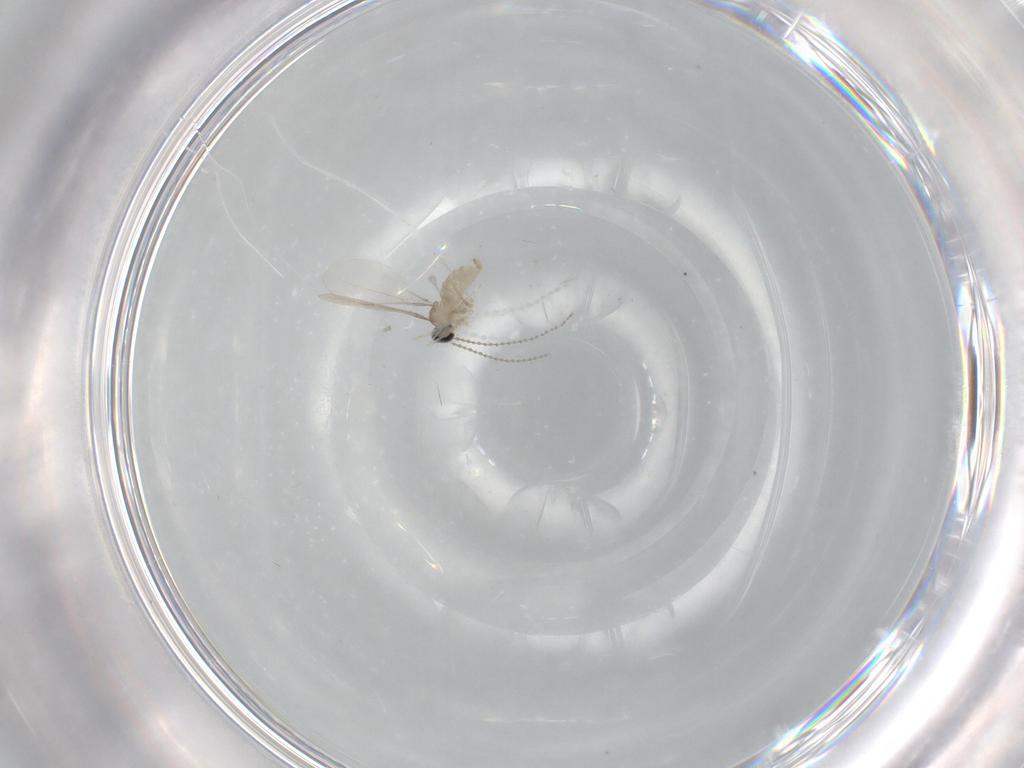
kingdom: Animalia
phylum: Arthropoda
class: Insecta
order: Diptera
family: Cecidomyiidae
